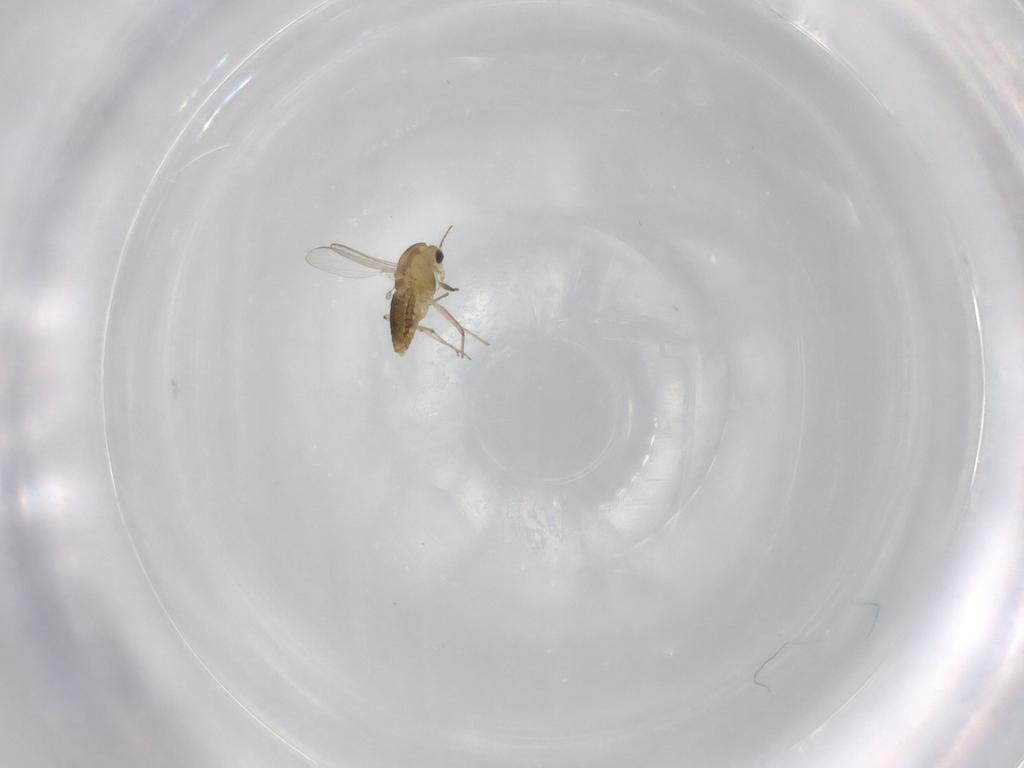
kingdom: Animalia
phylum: Arthropoda
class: Insecta
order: Diptera
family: Chironomidae
